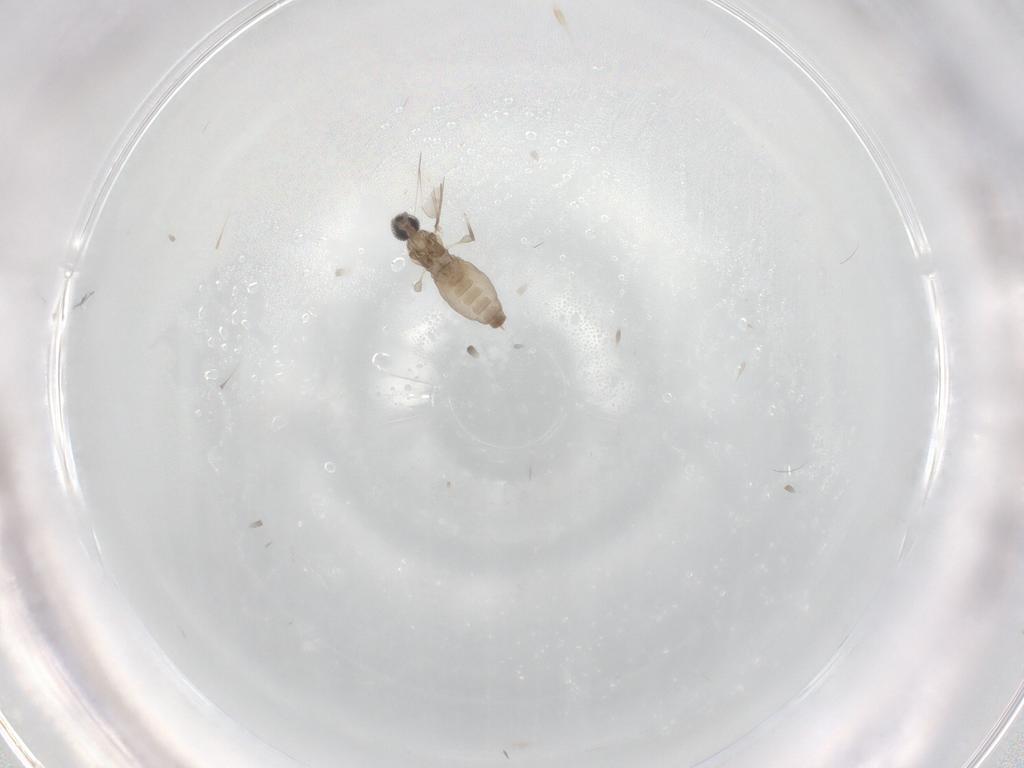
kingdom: Animalia
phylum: Arthropoda
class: Insecta
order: Diptera
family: Cecidomyiidae
